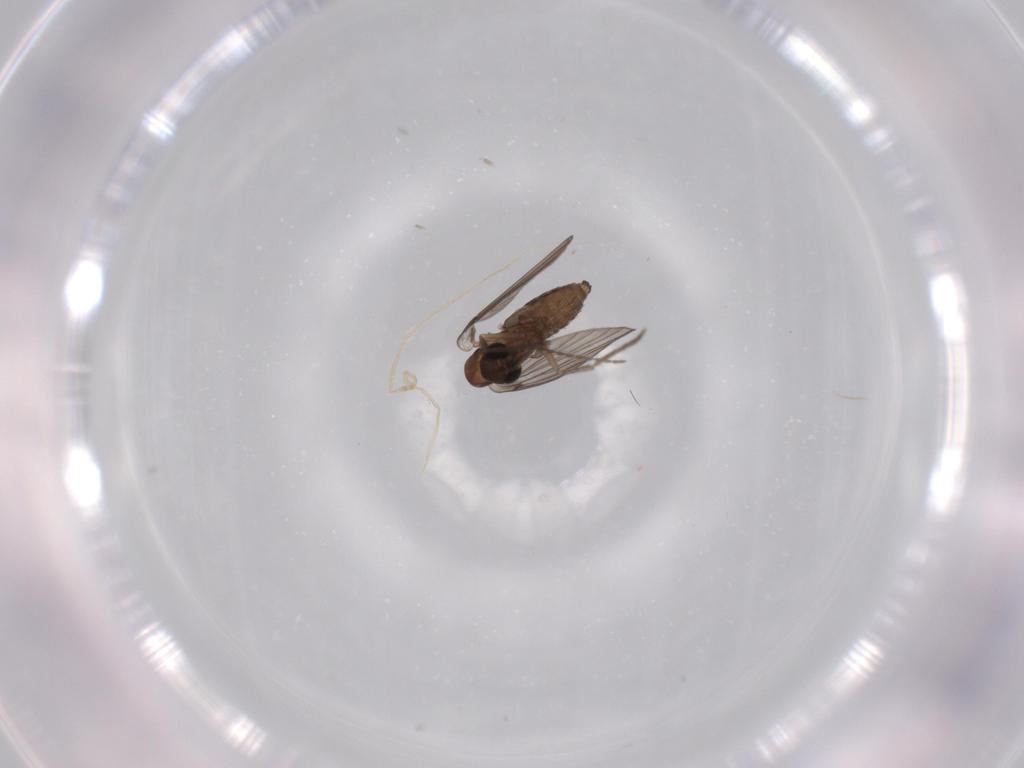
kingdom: Animalia
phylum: Arthropoda
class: Insecta
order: Diptera
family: Psychodidae
